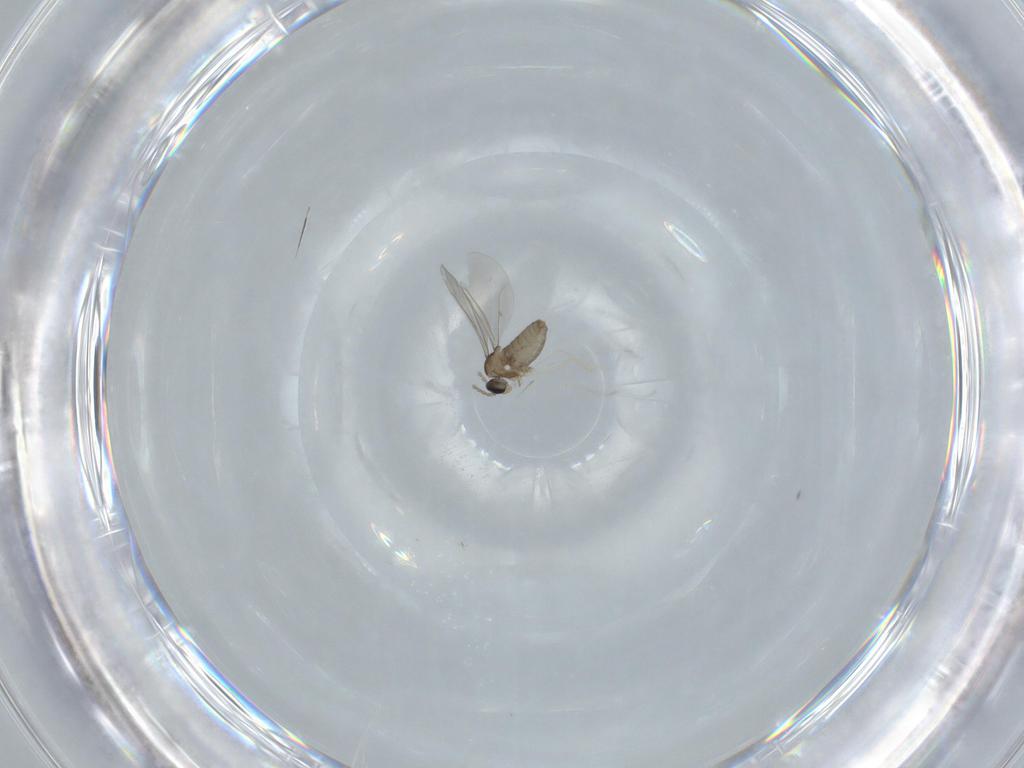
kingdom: Animalia
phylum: Arthropoda
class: Insecta
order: Diptera
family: Cecidomyiidae
